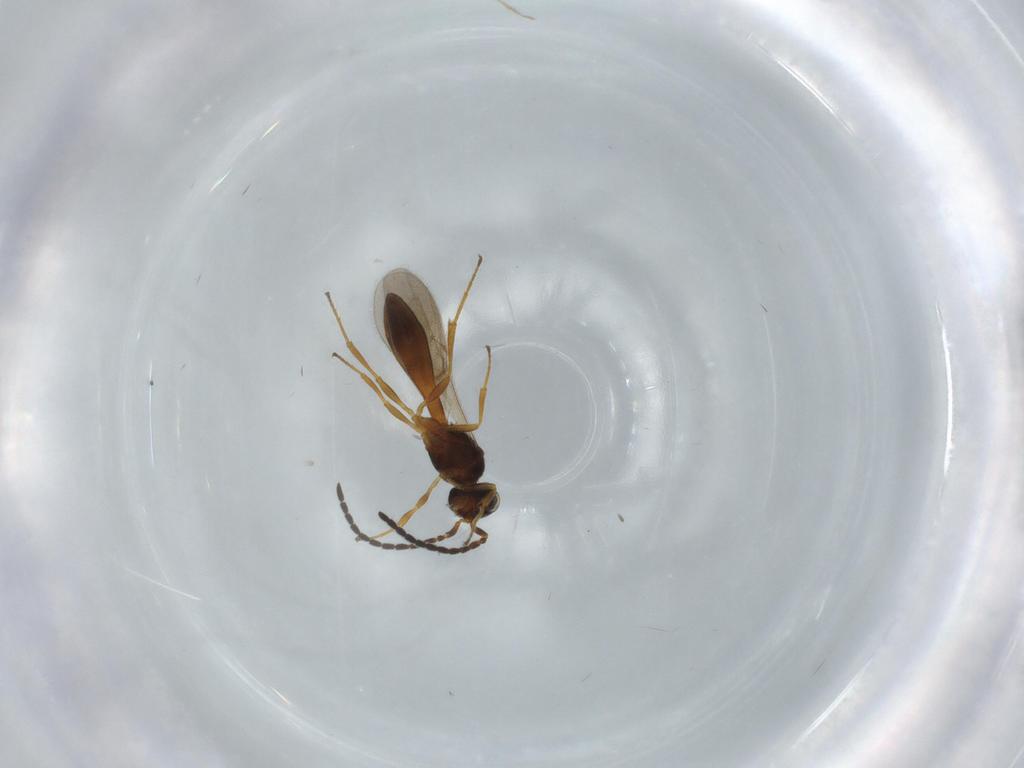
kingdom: Animalia
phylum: Arthropoda
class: Insecta
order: Hymenoptera
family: Scelionidae
